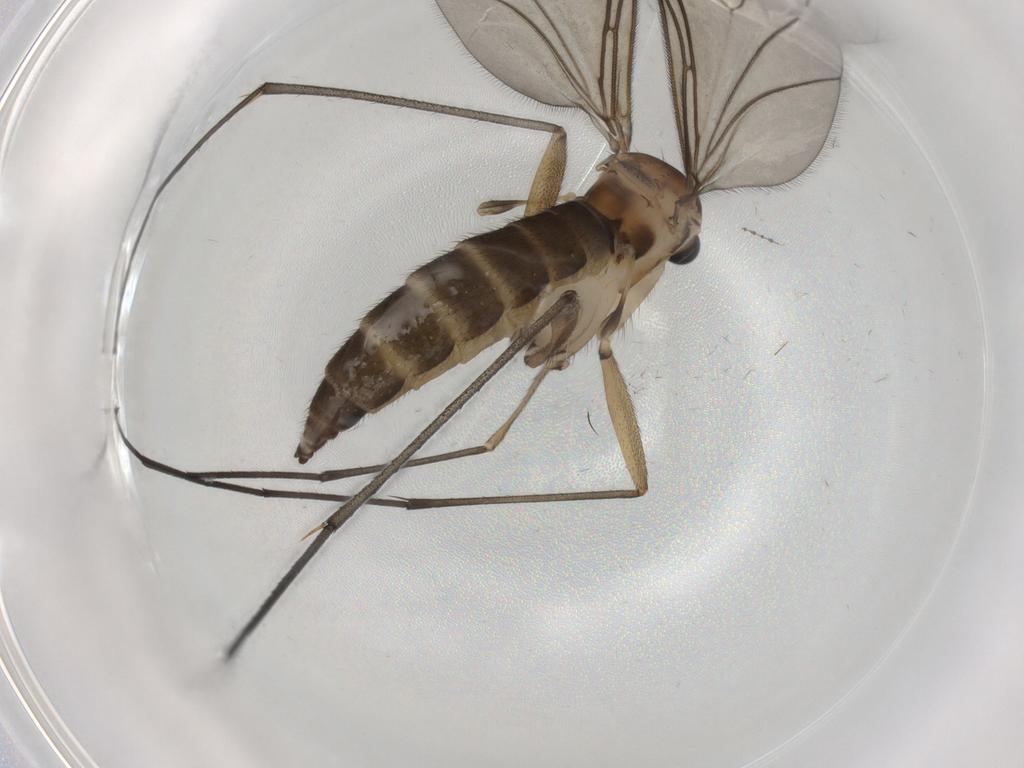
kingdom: Animalia
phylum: Arthropoda
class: Insecta
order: Diptera
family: Sciaridae
